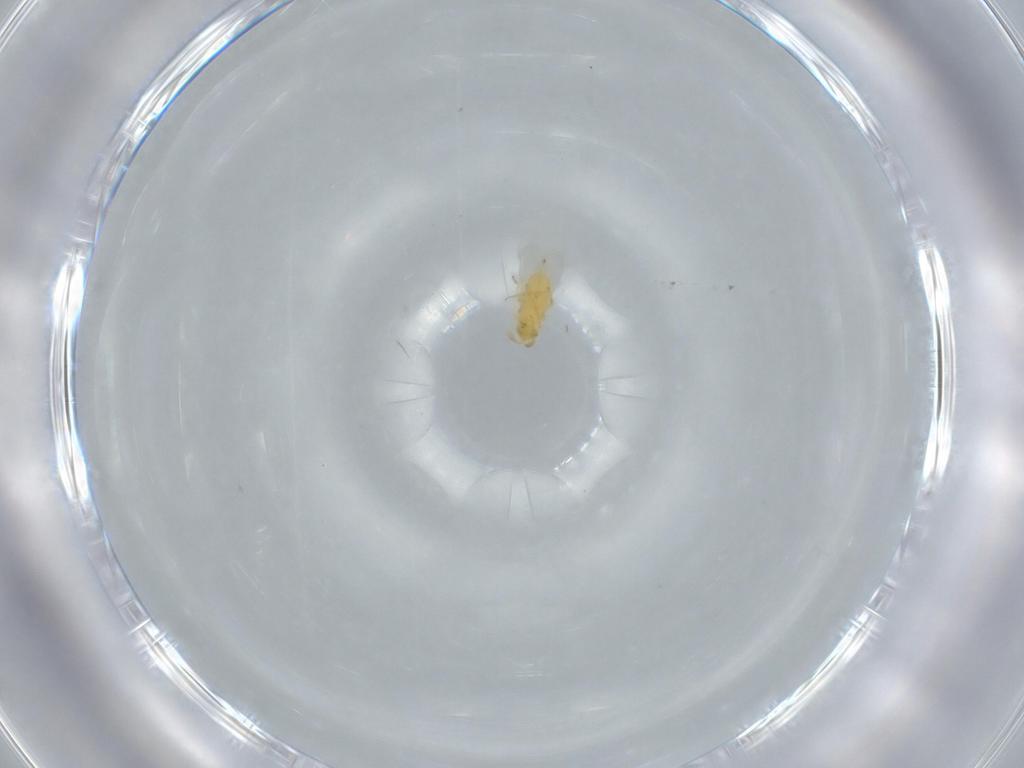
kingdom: Animalia
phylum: Arthropoda
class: Insecta
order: Hymenoptera
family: Scelionidae
